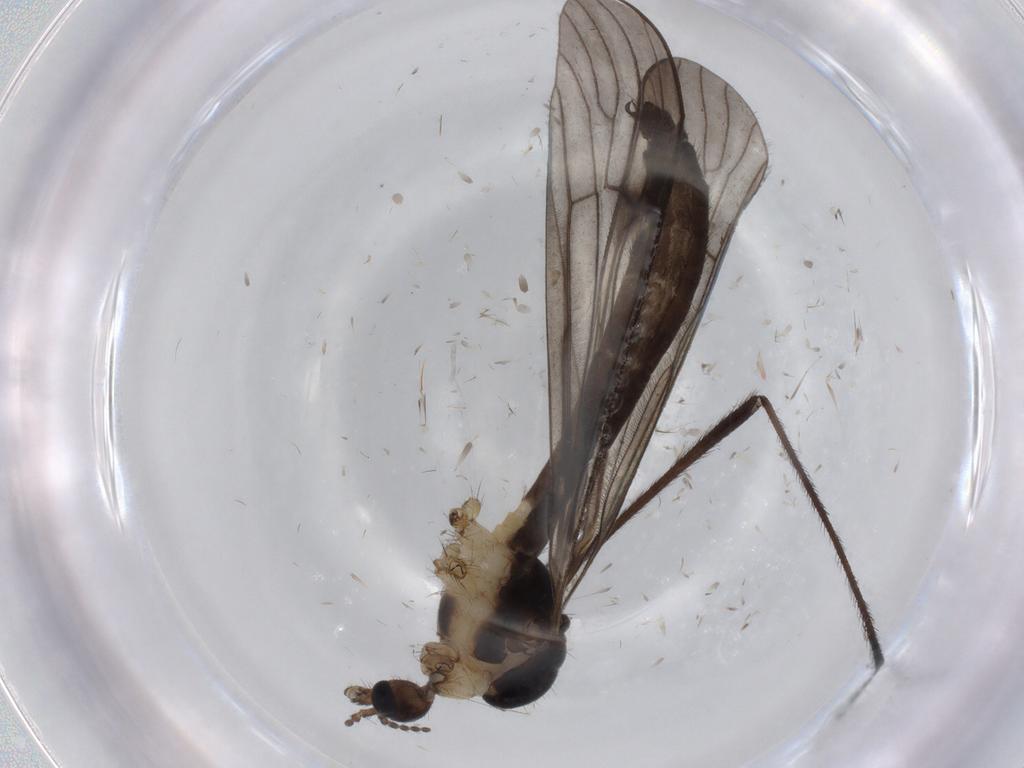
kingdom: Animalia
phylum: Arthropoda
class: Insecta
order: Diptera
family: Limoniidae
